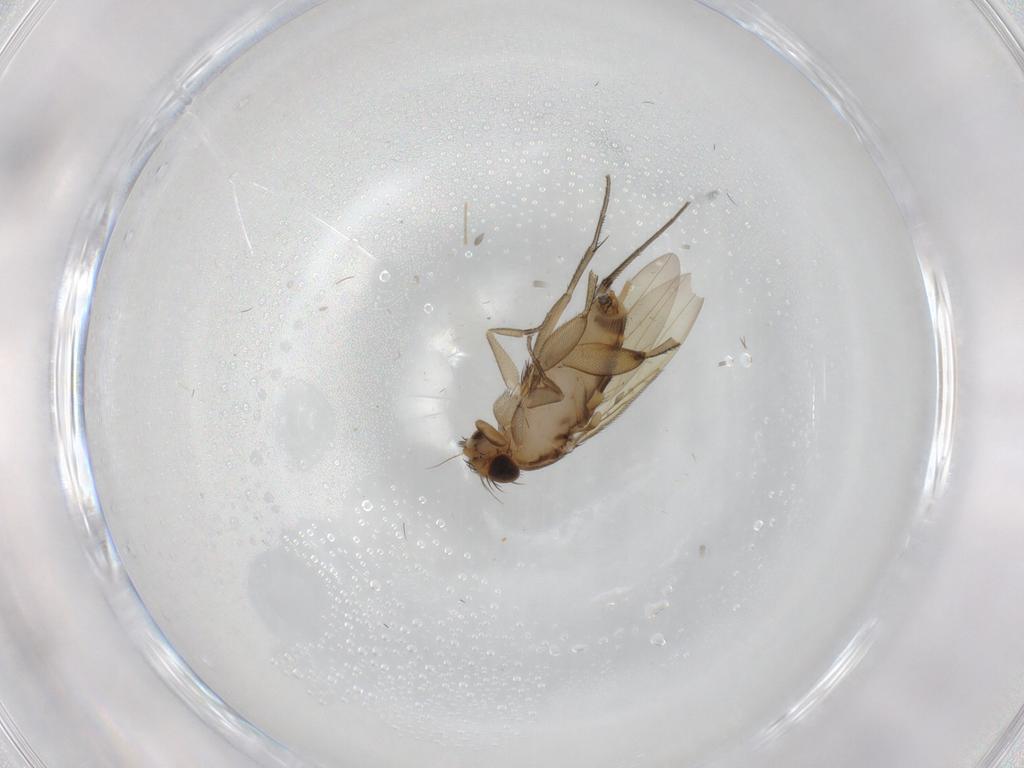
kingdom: Animalia
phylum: Arthropoda
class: Insecta
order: Diptera
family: Phoridae
